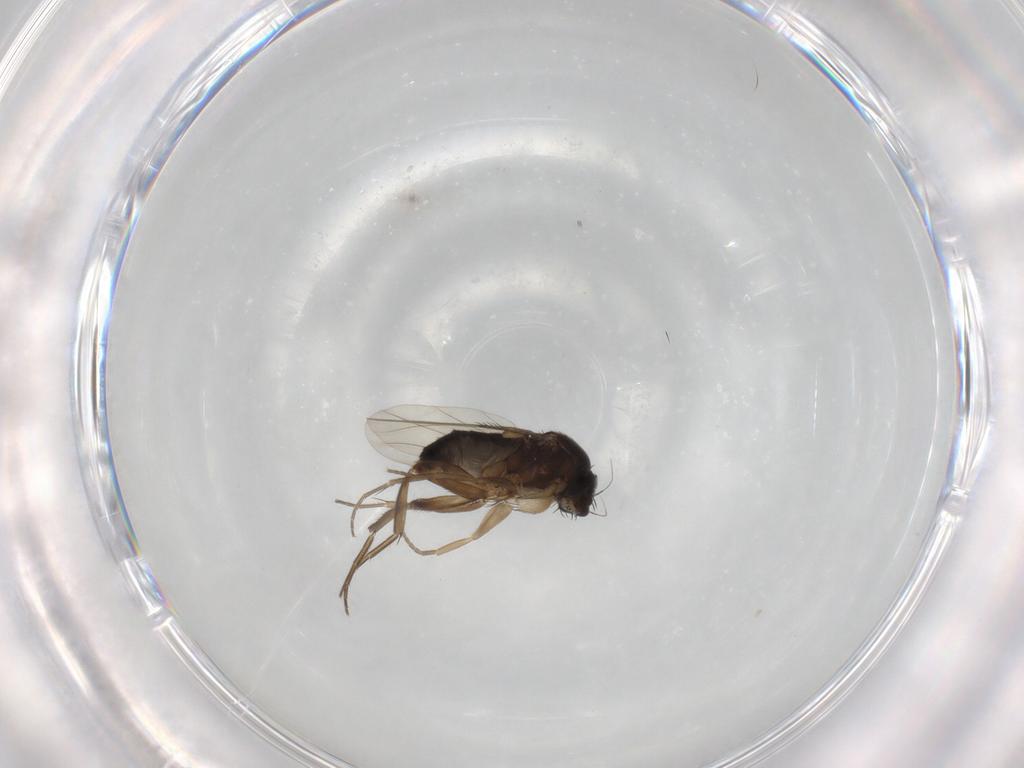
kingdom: Animalia
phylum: Arthropoda
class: Insecta
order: Diptera
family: Phoridae
